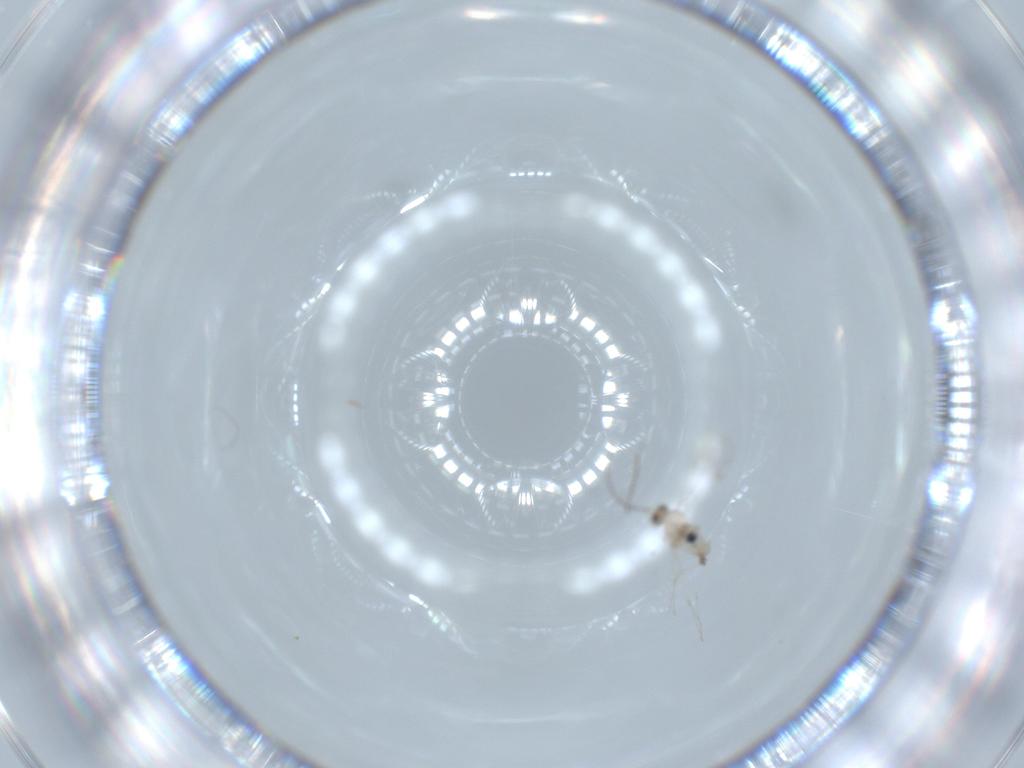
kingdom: Animalia
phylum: Arthropoda
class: Insecta
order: Diptera
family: Cecidomyiidae
